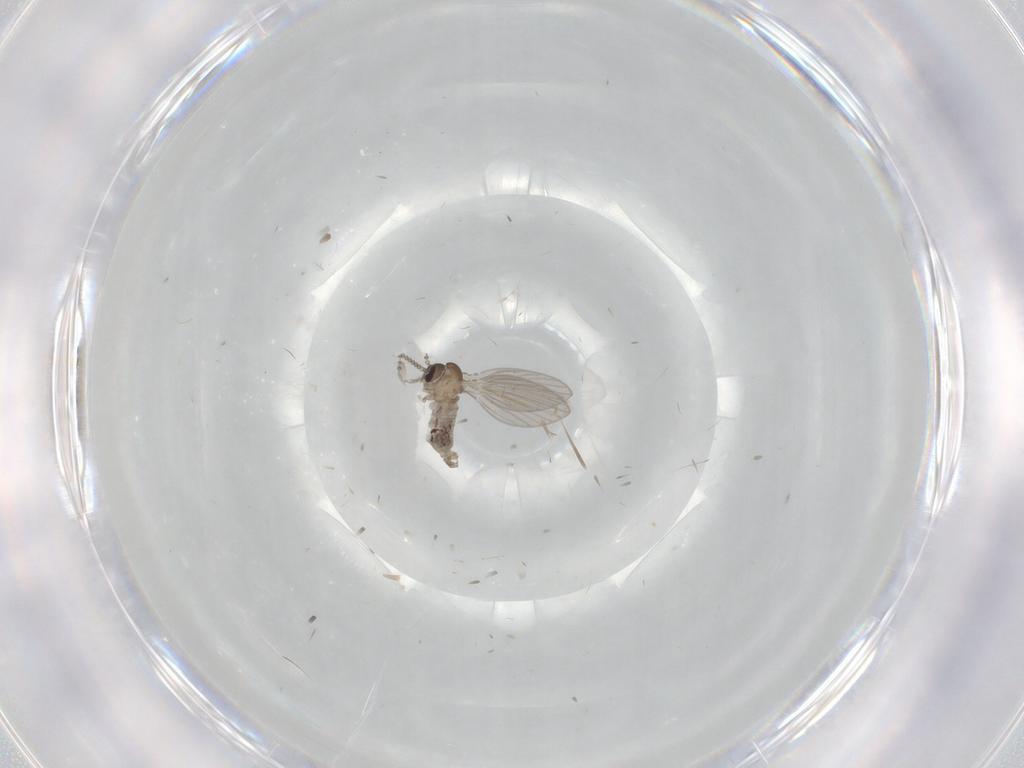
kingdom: Animalia
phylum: Arthropoda
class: Insecta
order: Diptera
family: Psychodidae
